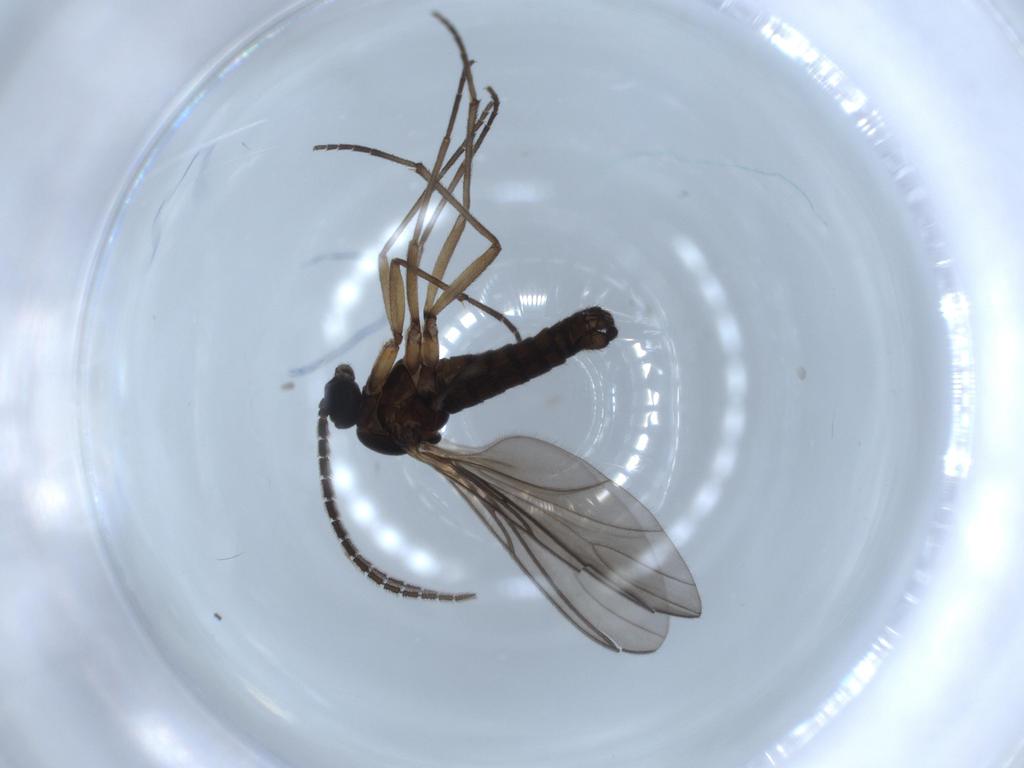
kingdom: Animalia
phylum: Arthropoda
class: Insecta
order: Diptera
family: Sciaridae
